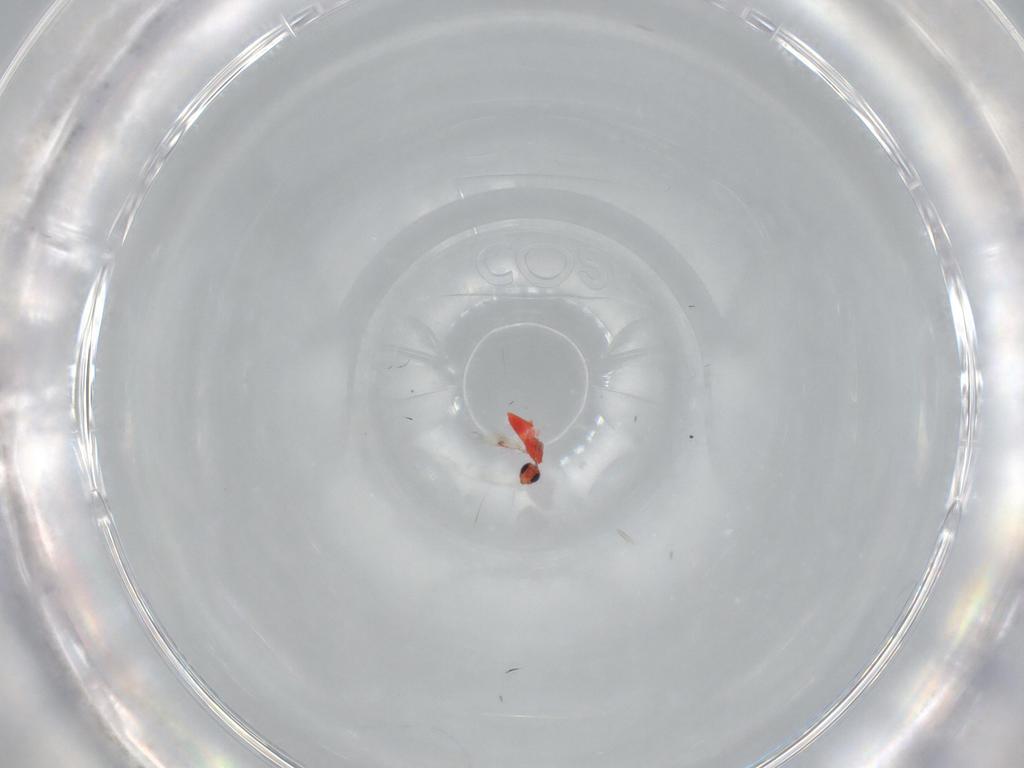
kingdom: Animalia
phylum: Arthropoda
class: Insecta
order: Hymenoptera
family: Trichogrammatidae
